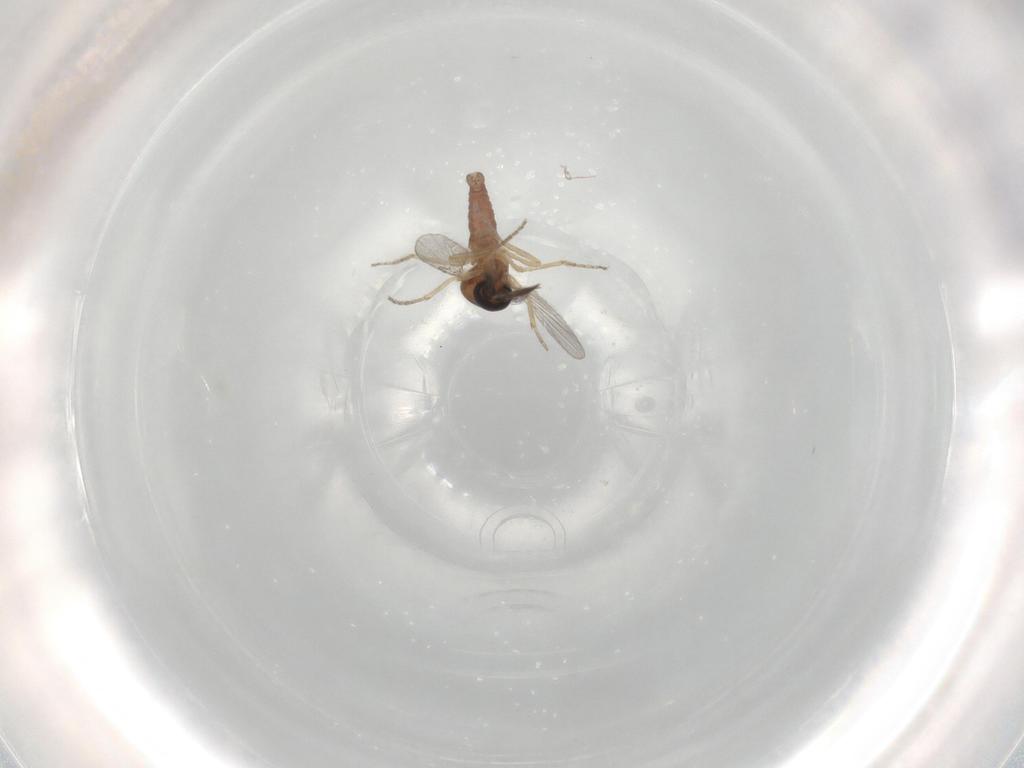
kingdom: Animalia
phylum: Arthropoda
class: Insecta
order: Diptera
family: Ceratopogonidae
